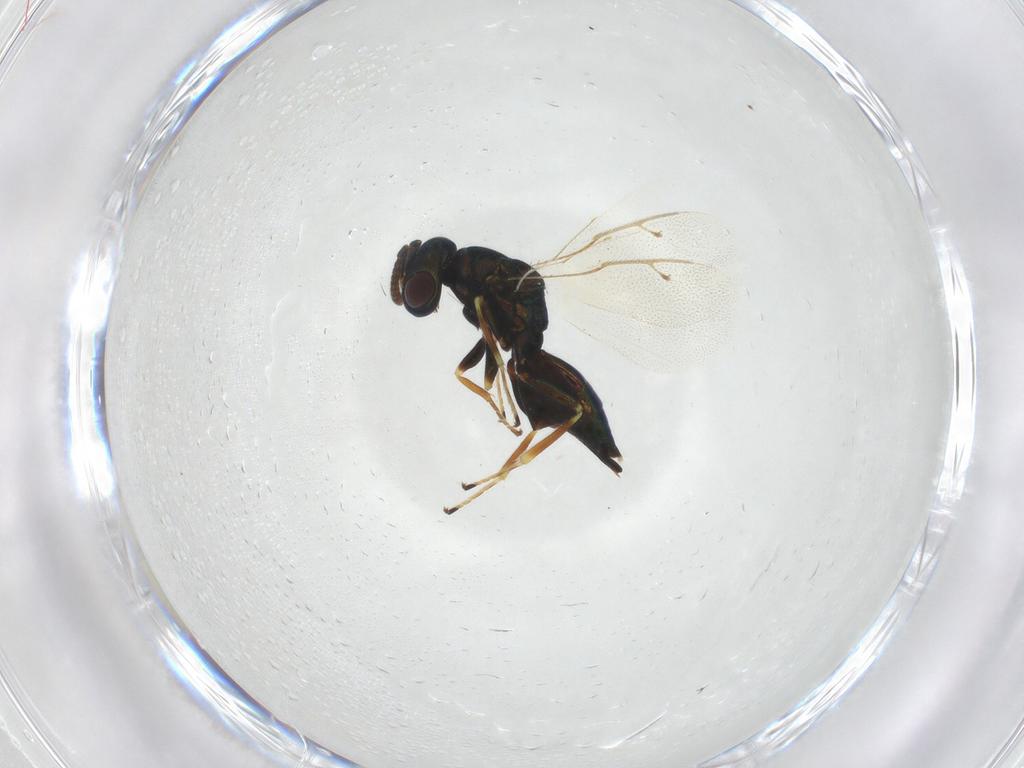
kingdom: Animalia
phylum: Arthropoda
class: Insecta
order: Hymenoptera
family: Pteromalidae
